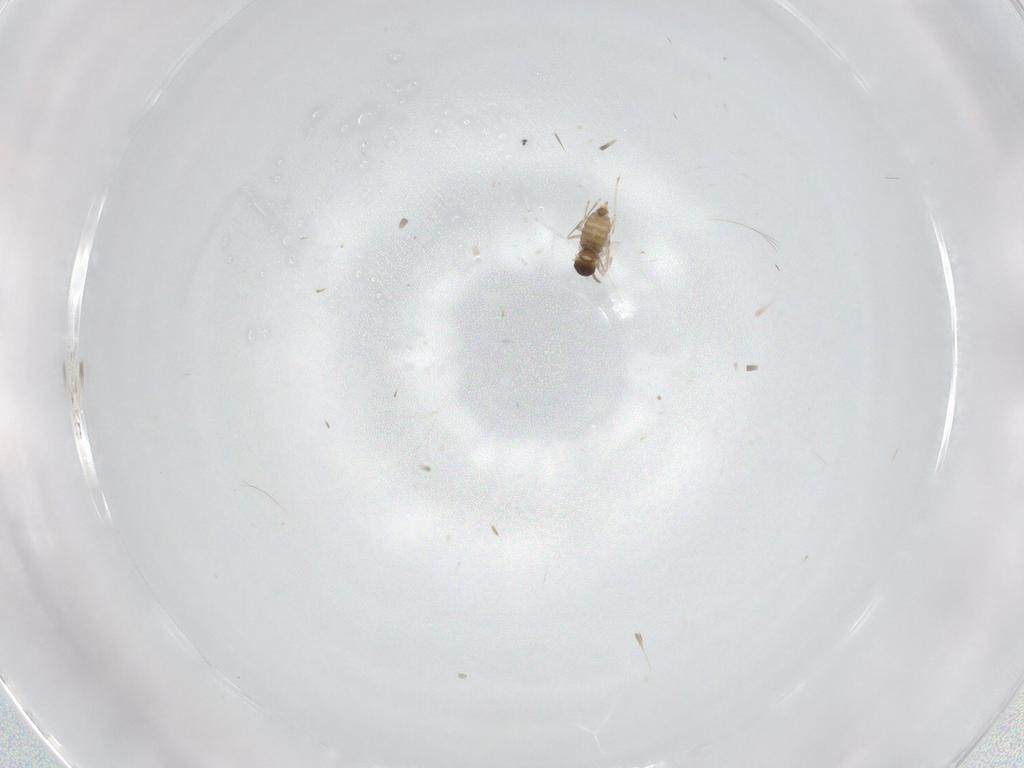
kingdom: Animalia
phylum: Arthropoda
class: Insecta
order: Diptera
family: Cecidomyiidae
